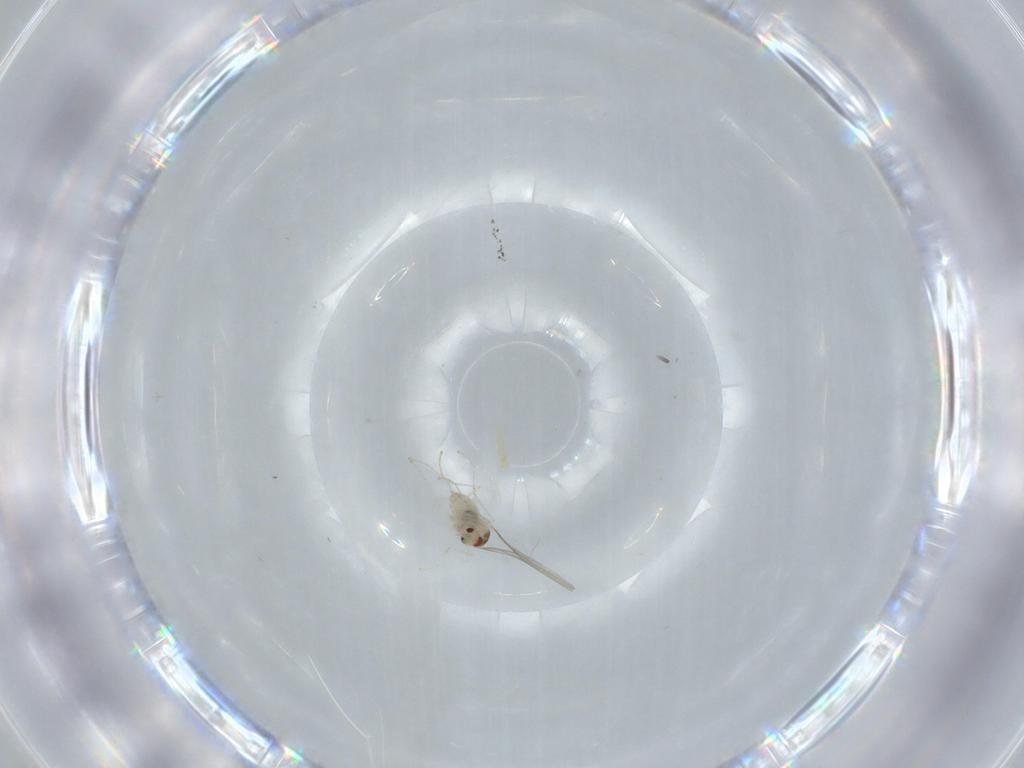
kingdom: Animalia
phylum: Arthropoda
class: Insecta
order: Diptera
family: Cecidomyiidae
